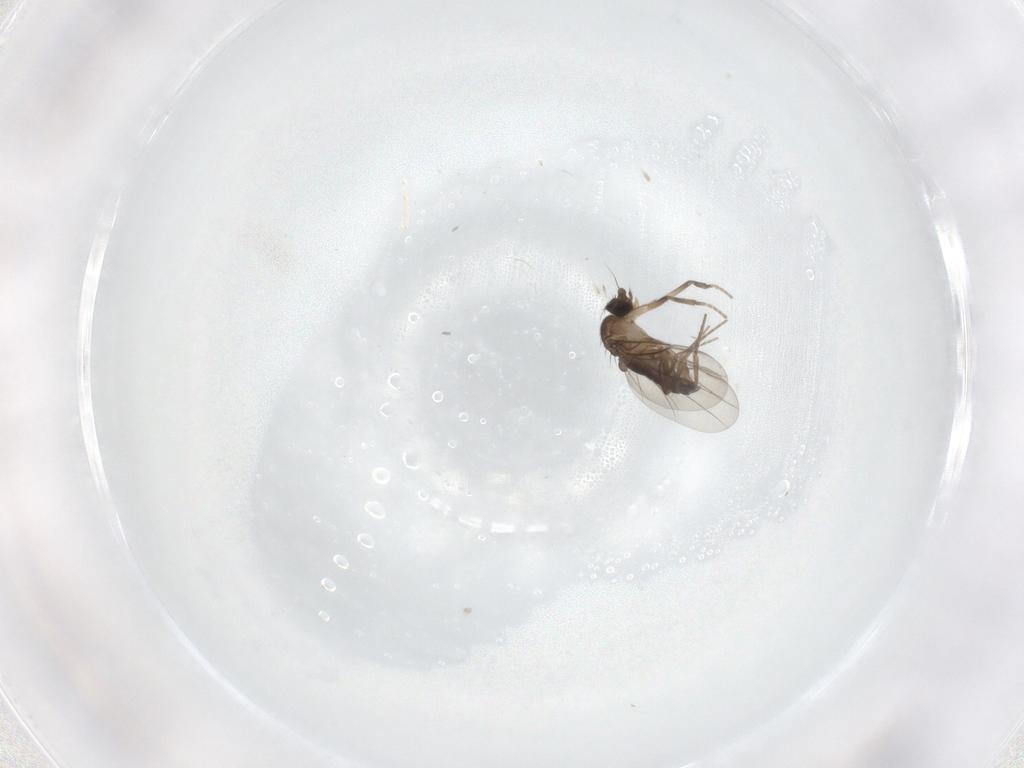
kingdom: Animalia
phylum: Arthropoda
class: Insecta
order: Diptera
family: Phoridae
